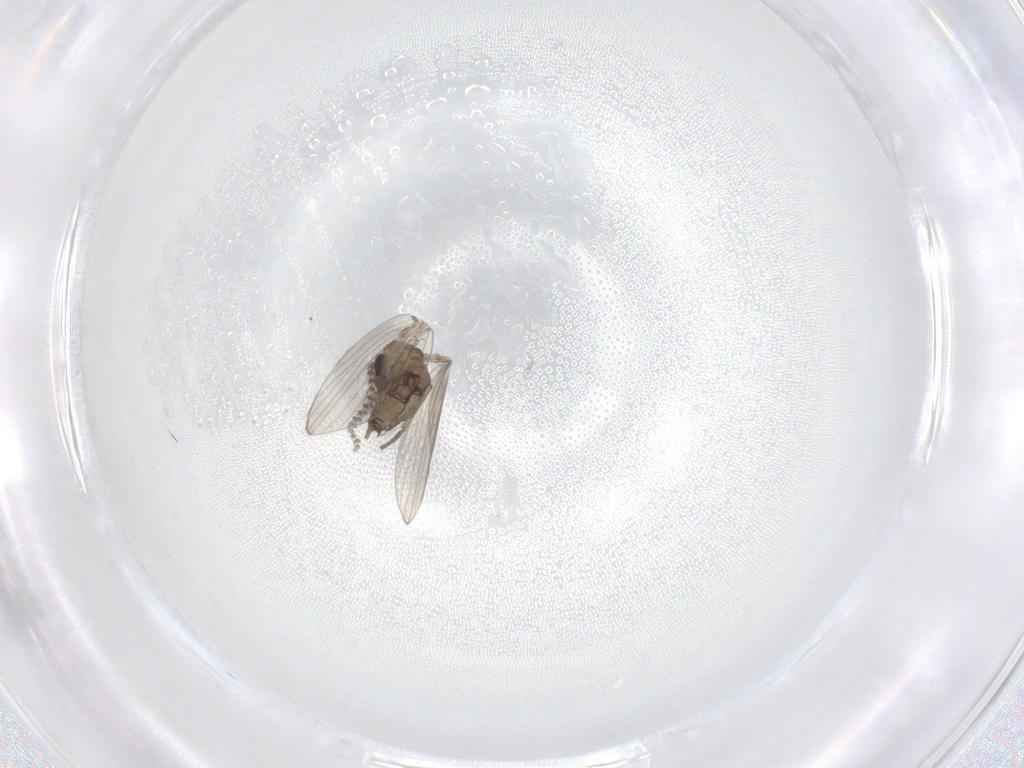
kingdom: Animalia
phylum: Arthropoda
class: Insecta
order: Diptera
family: Psychodidae
